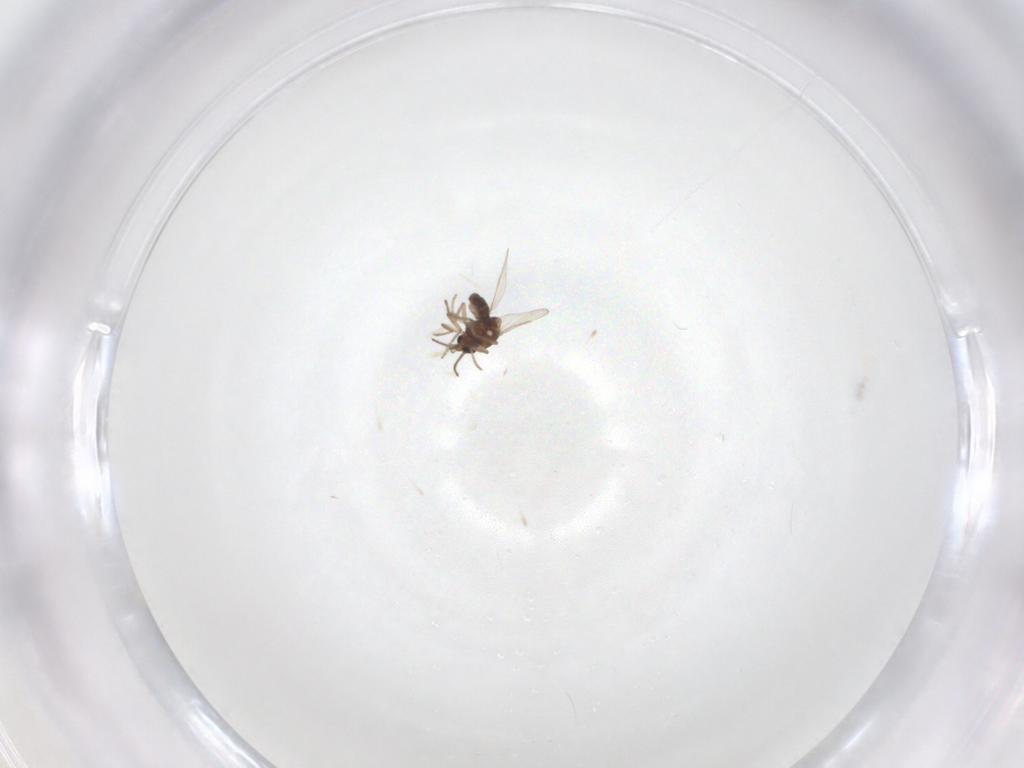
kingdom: Animalia
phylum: Arthropoda
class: Insecta
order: Diptera
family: Ceratopogonidae
